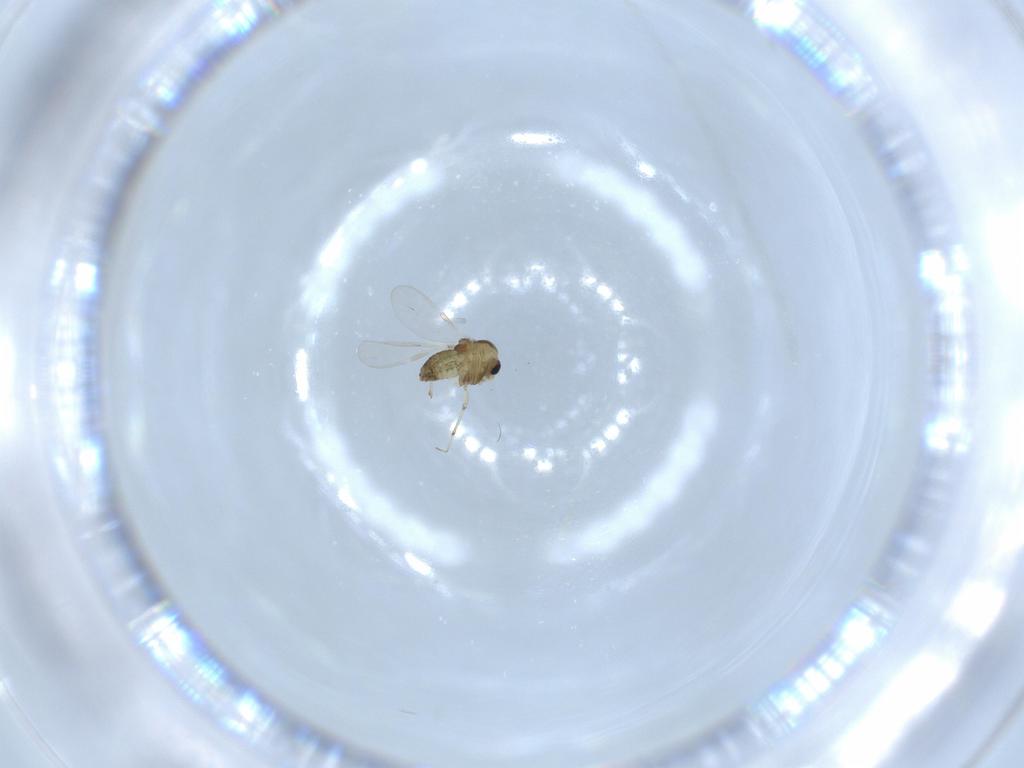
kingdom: Animalia
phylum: Arthropoda
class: Insecta
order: Diptera
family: Chironomidae
